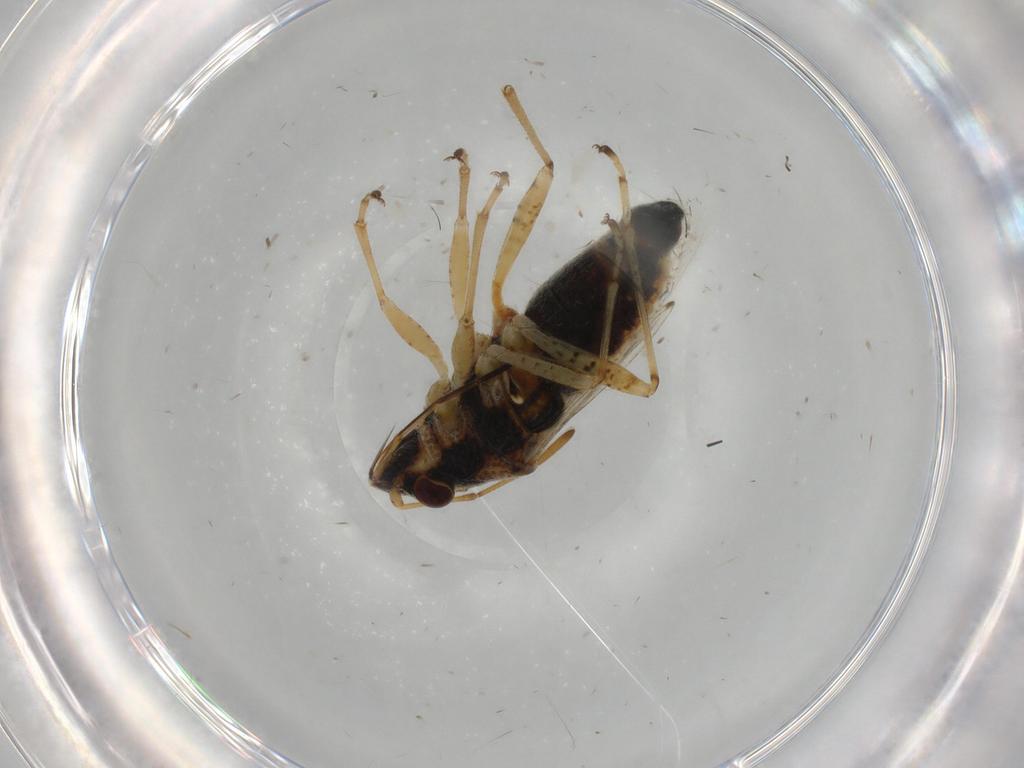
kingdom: Animalia
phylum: Arthropoda
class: Insecta
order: Hemiptera
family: Lygaeidae
